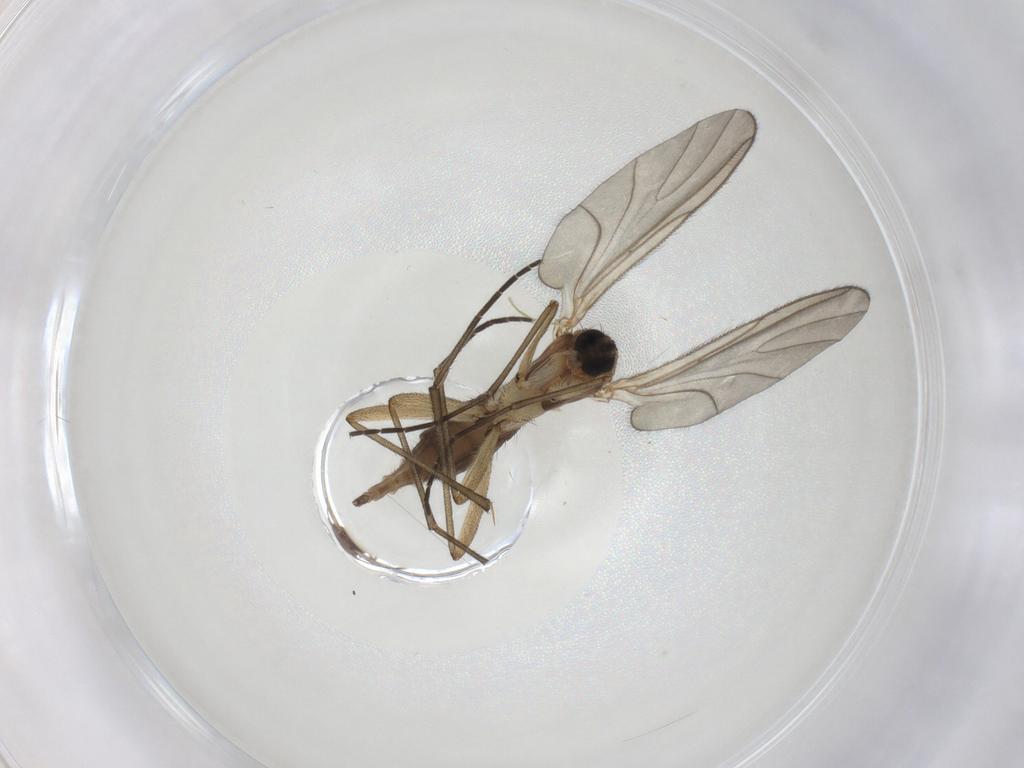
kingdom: Animalia
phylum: Arthropoda
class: Insecta
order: Diptera
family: Sciaridae
